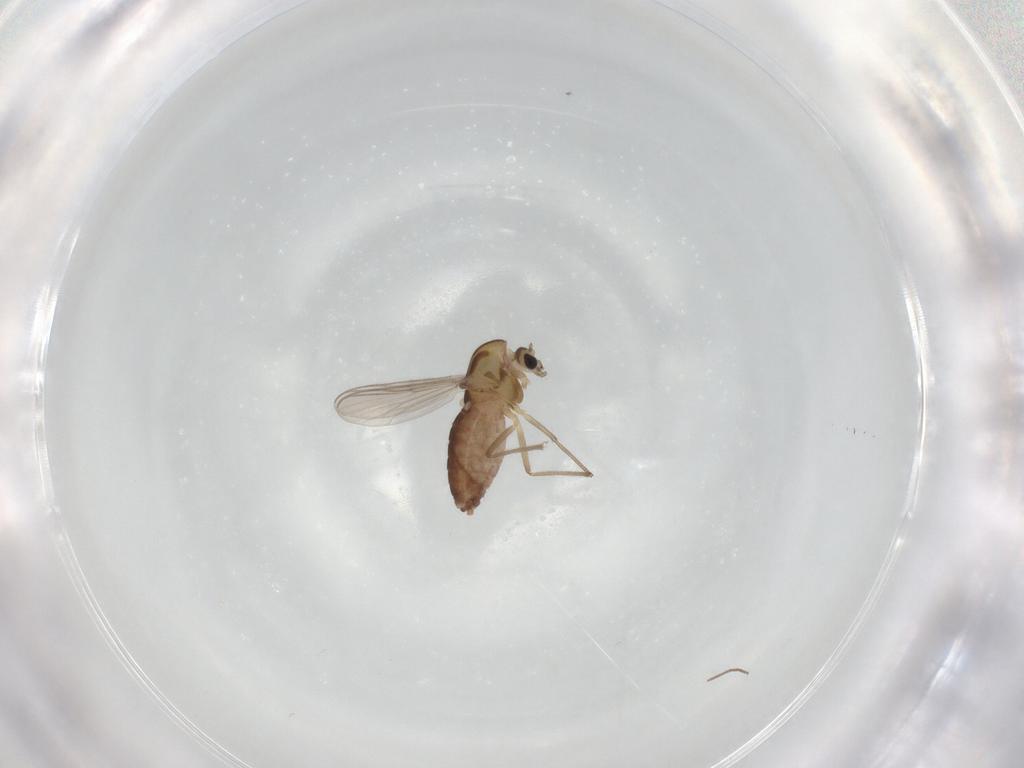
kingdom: Animalia
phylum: Arthropoda
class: Insecta
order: Diptera
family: Chironomidae
